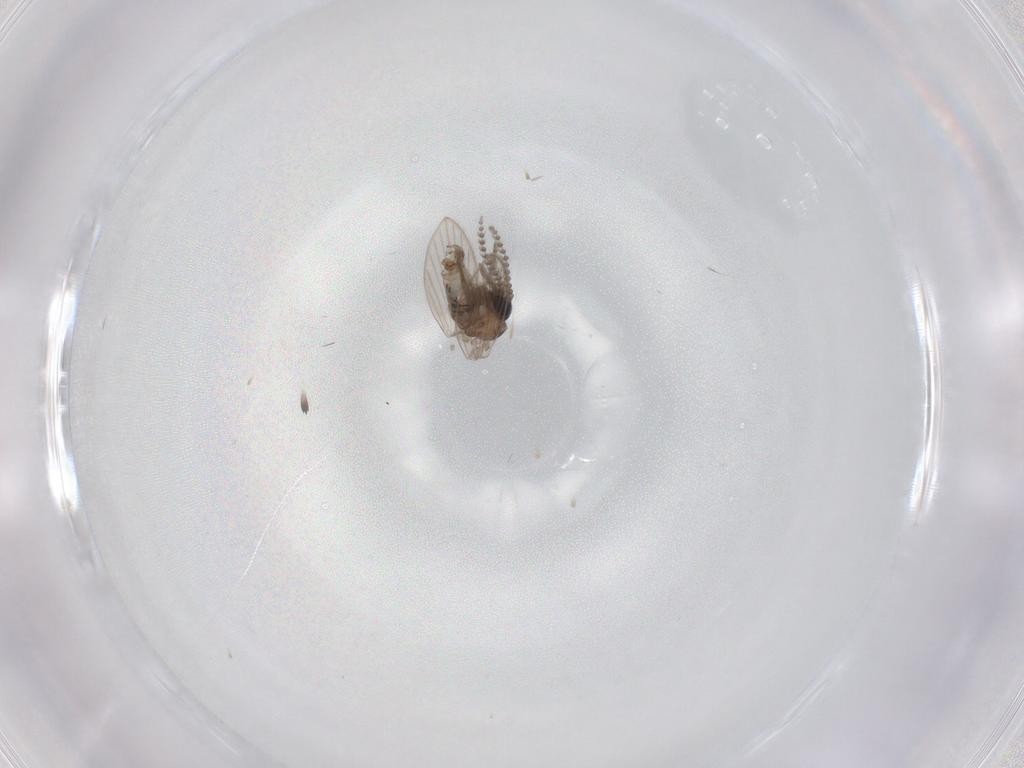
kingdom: Animalia
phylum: Arthropoda
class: Insecta
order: Diptera
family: Psychodidae
